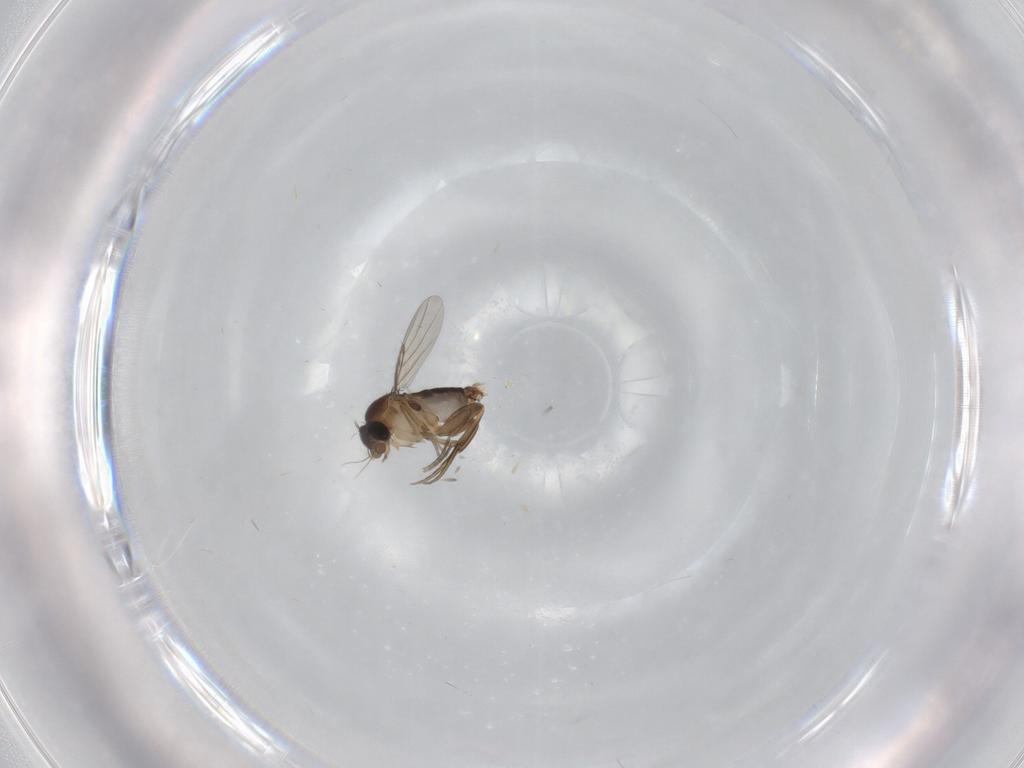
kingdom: Animalia
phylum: Arthropoda
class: Insecta
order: Diptera
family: Phoridae
